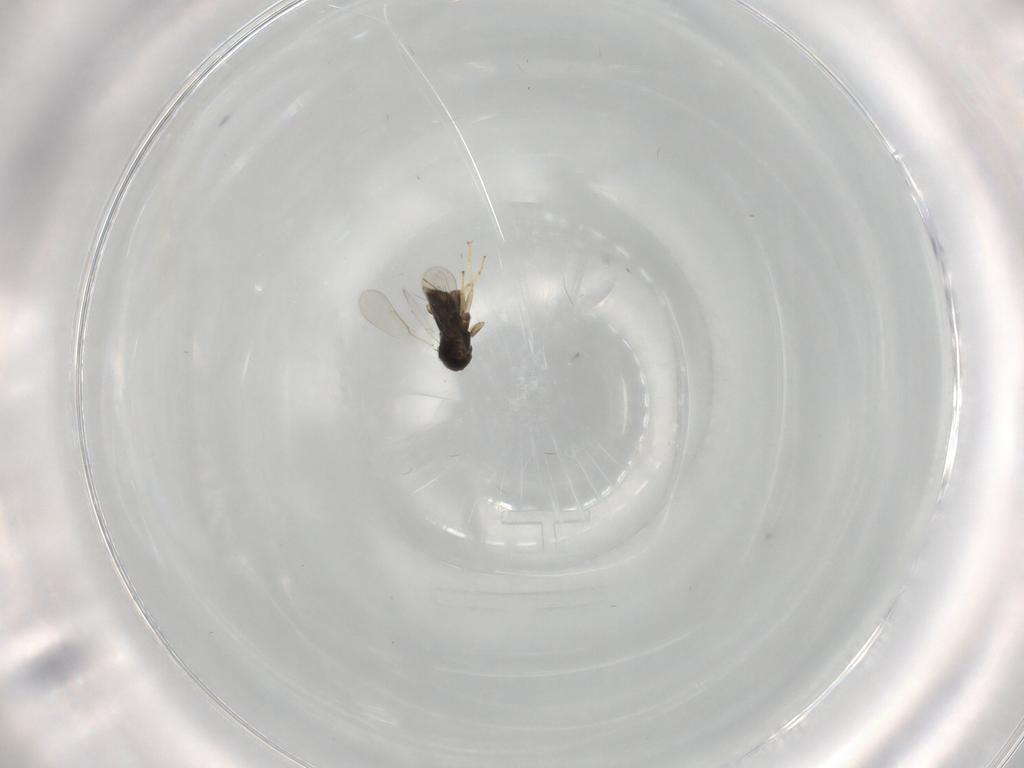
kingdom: Animalia
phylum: Arthropoda
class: Insecta
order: Hymenoptera
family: Aphelinidae
